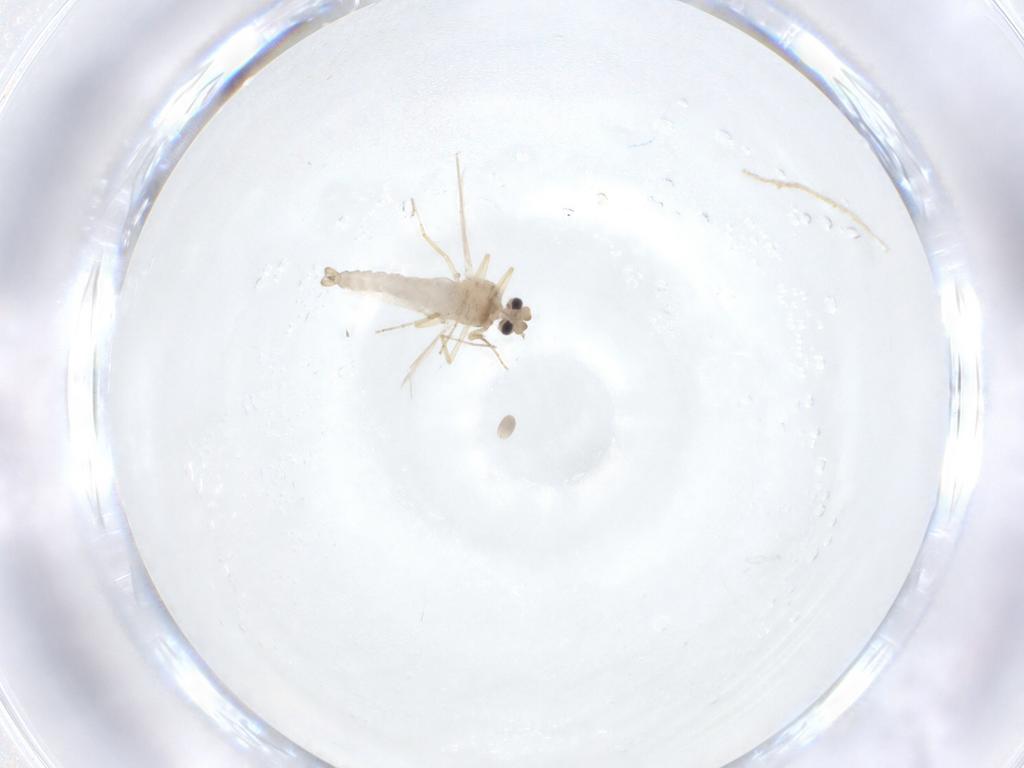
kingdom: Animalia
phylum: Arthropoda
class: Insecta
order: Diptera
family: Ceratopogonidae
